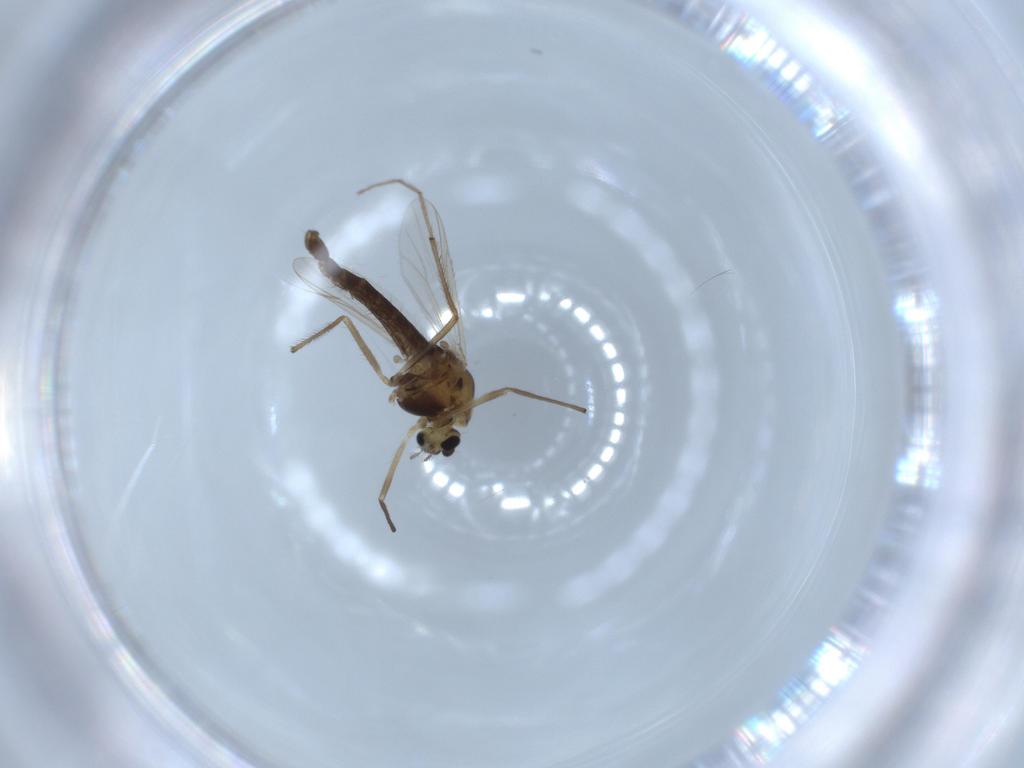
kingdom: Animalia
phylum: Arthropoda
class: Insecta
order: Diptera
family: Chironomidae
